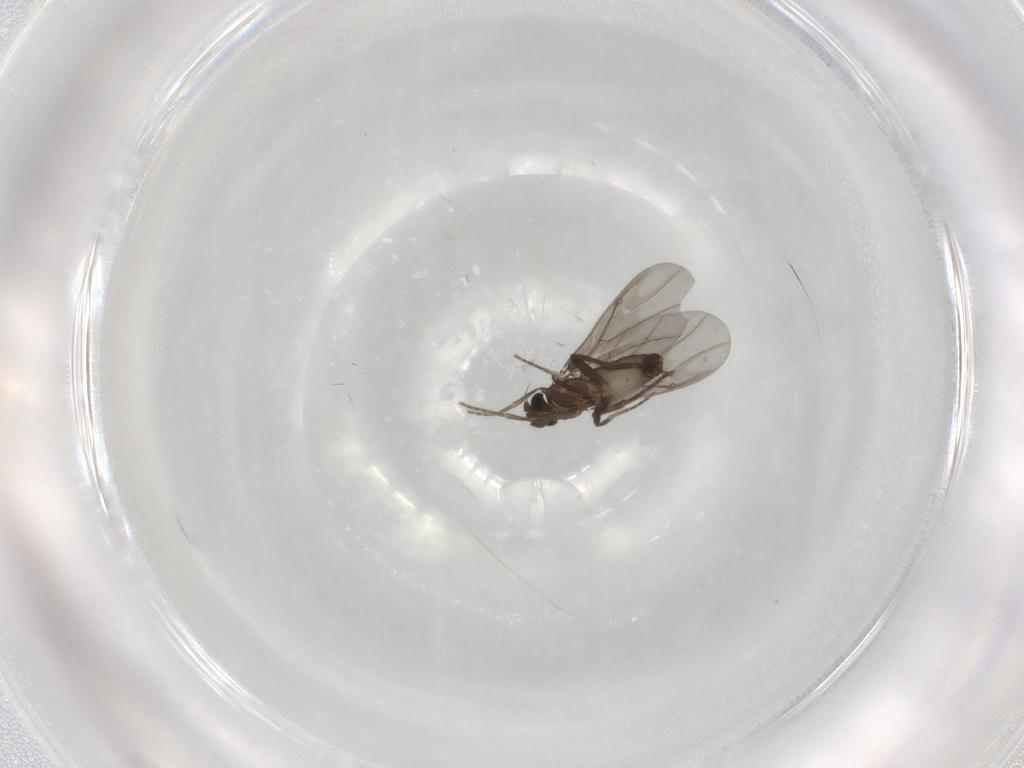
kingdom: Animalia
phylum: Arthropoda
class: Insecta
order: Diptera
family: Phoridae
